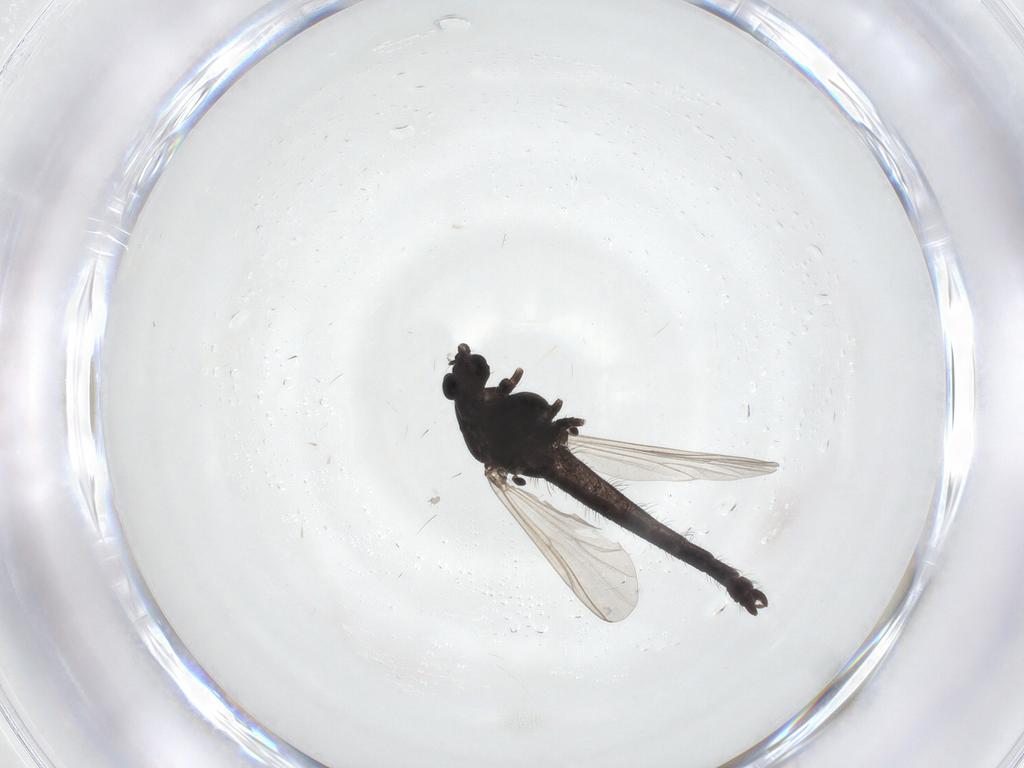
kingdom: Animalia
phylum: Arthropoda
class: Insecta
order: Diptera
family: Chironomidae
